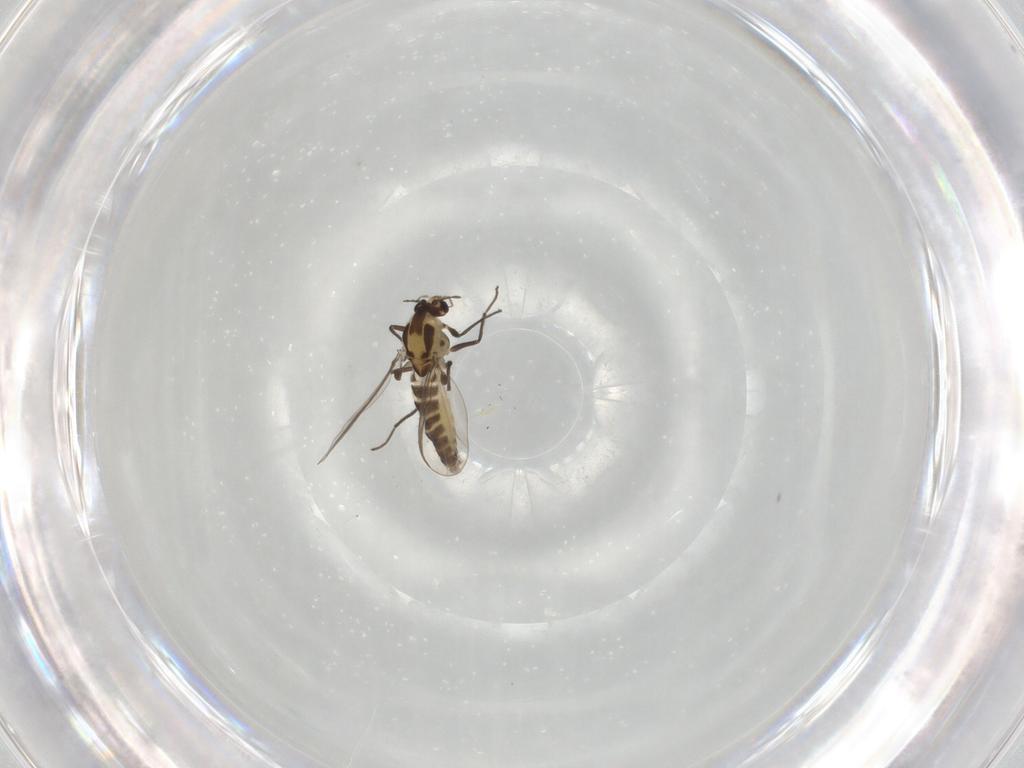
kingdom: Animalia
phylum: Arthropoda
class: Insecta
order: Diptera
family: Chironomidae
